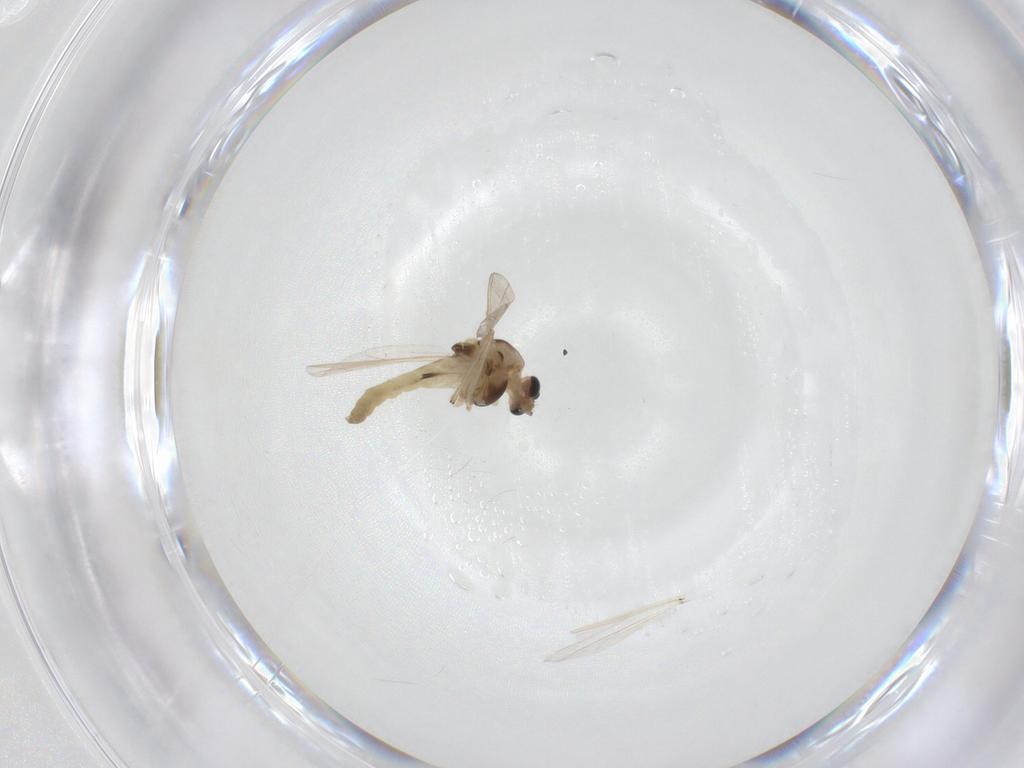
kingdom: Animalia
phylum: Arthropoda
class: Insecta
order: Diptera
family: Chironomidae
